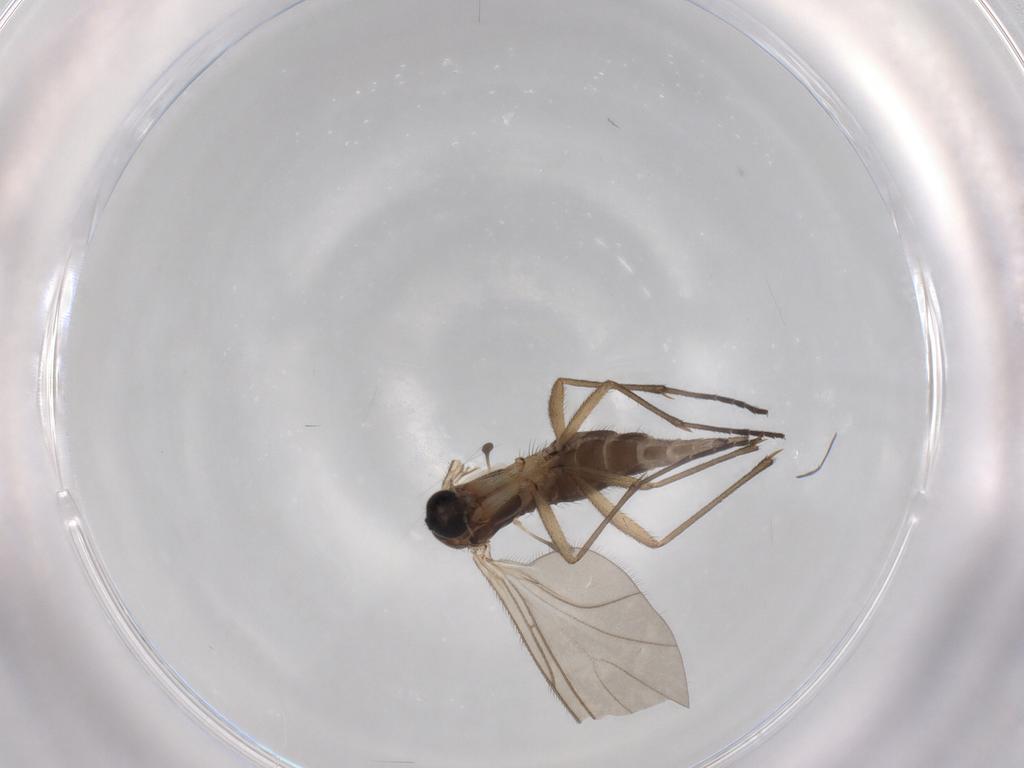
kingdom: Animalia
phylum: Arthropoda
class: Insecta
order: Diptera
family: Sciaridae
